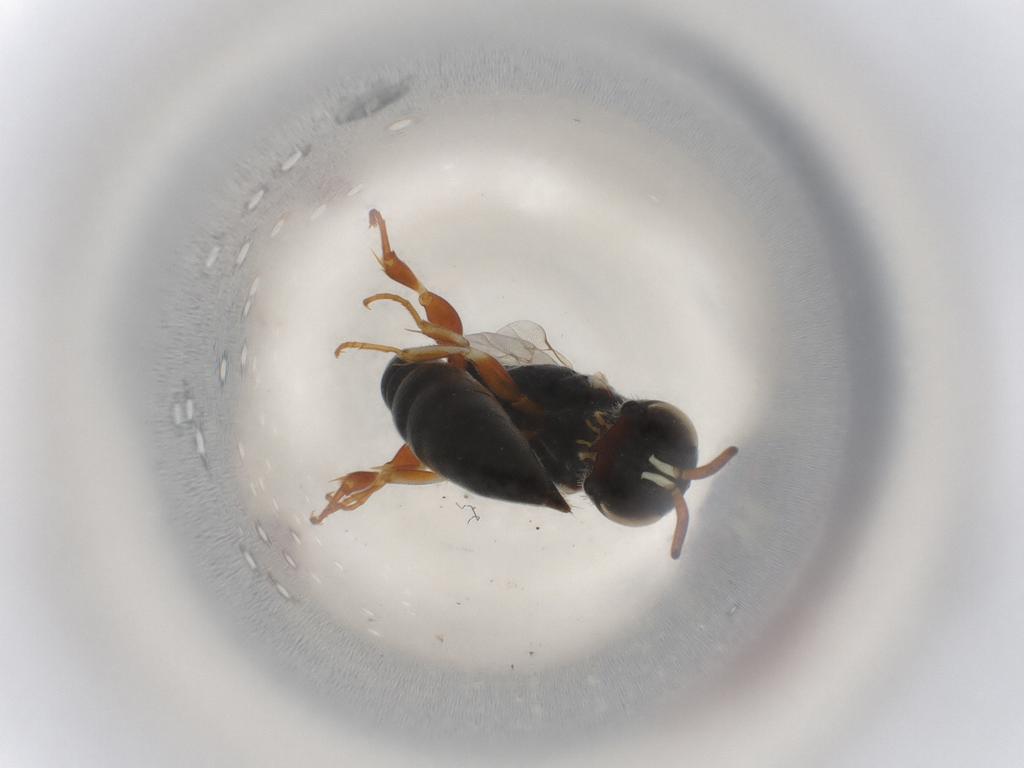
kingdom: Animalia
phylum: Arthropoda
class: Insecta
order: Hymenoptera
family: Pemphredonidae
